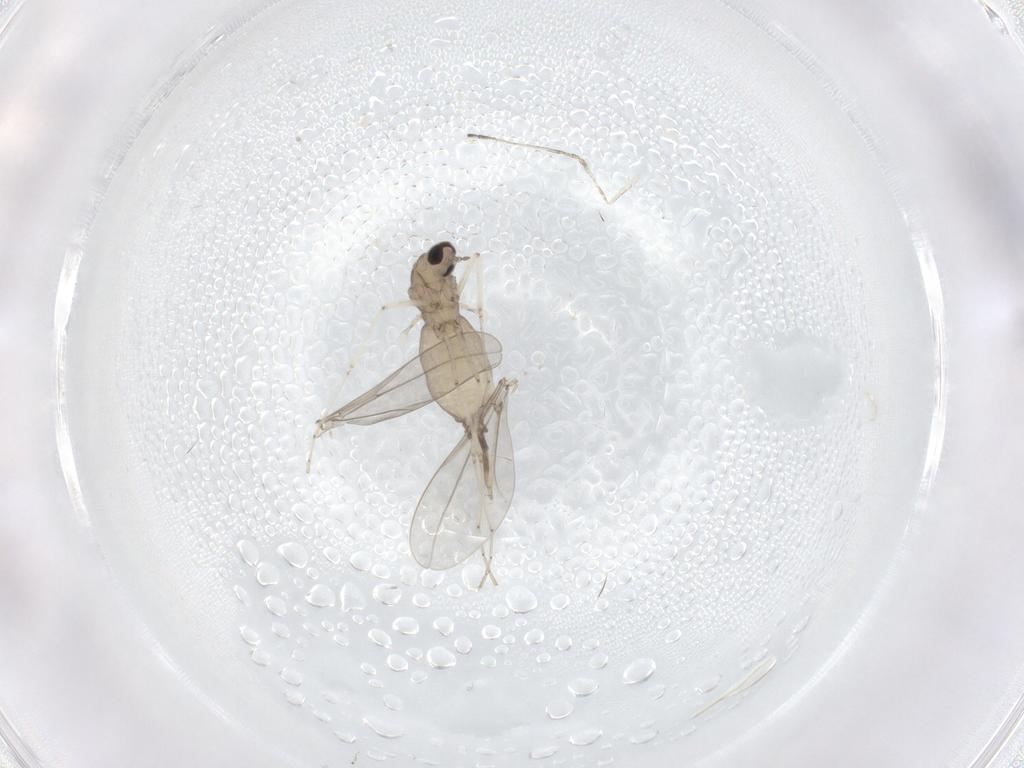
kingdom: Animalia
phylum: Arthropoda
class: Insecta
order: Diptera
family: Cecidomyiidae
